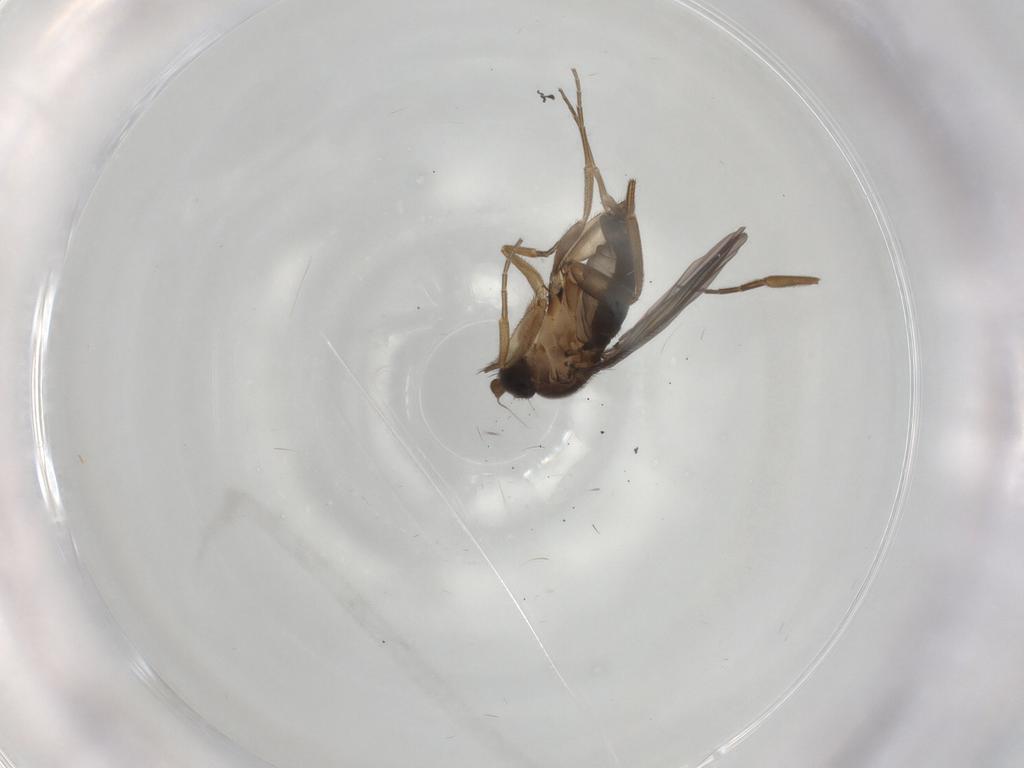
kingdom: Animalia
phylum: Arthropoda
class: Insecta
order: Diptera
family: Phoridae
